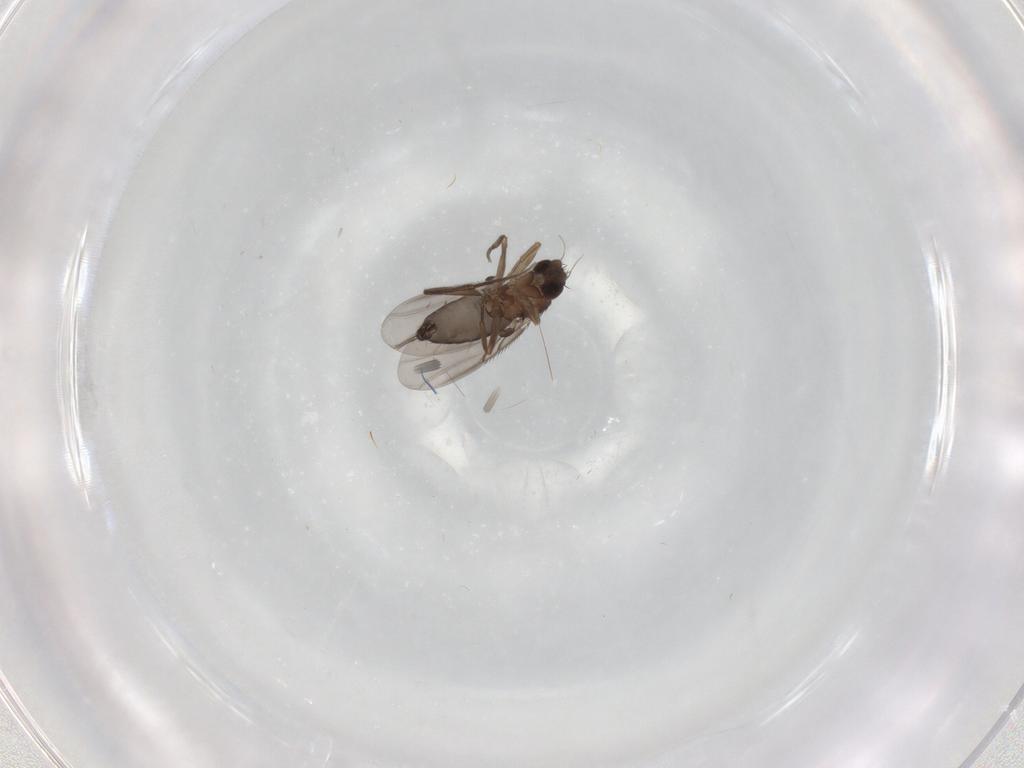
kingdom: Animalia
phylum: Arthropoda
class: Insecta
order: Diptera
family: Phoridae
